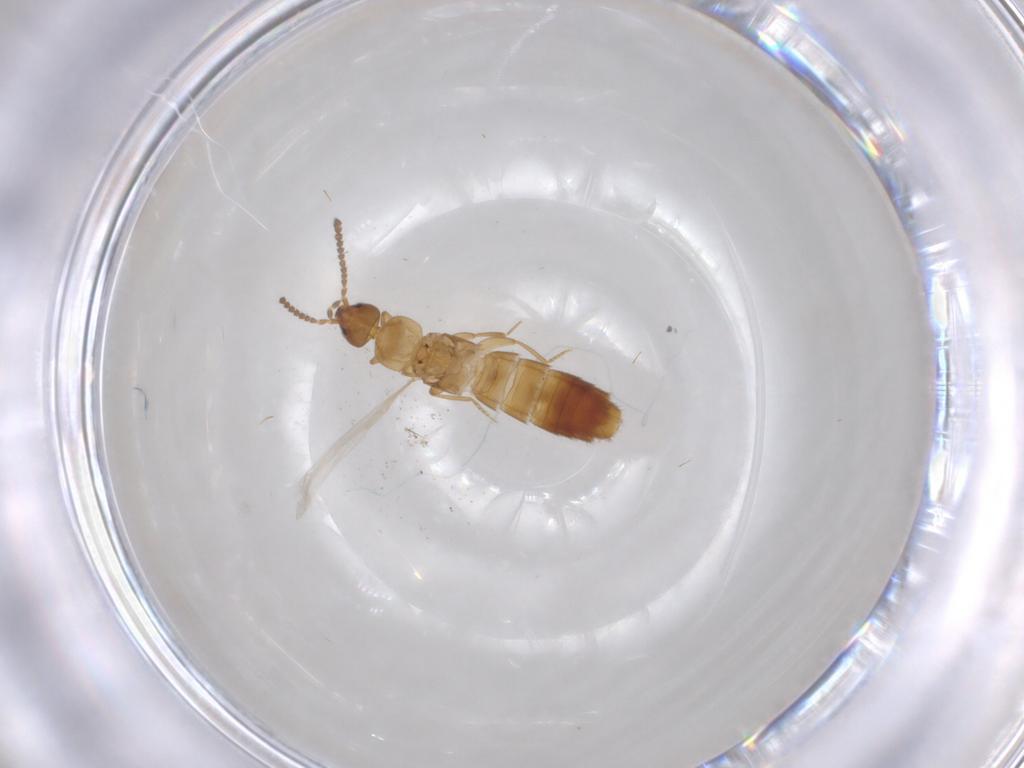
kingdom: Animalia
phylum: Arthropoda
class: Insecta
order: Coleoptera
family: Staphylinidae
